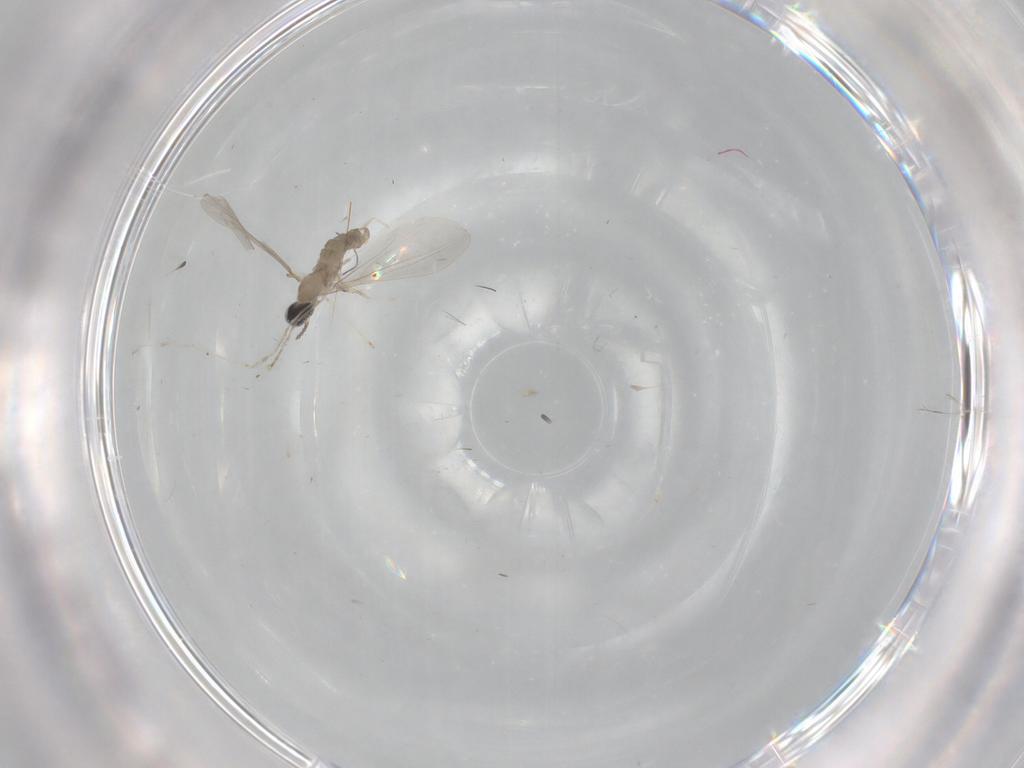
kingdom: Animalia
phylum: Arthropoda
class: Insecta
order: Diptera
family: Cecidomyiidae
